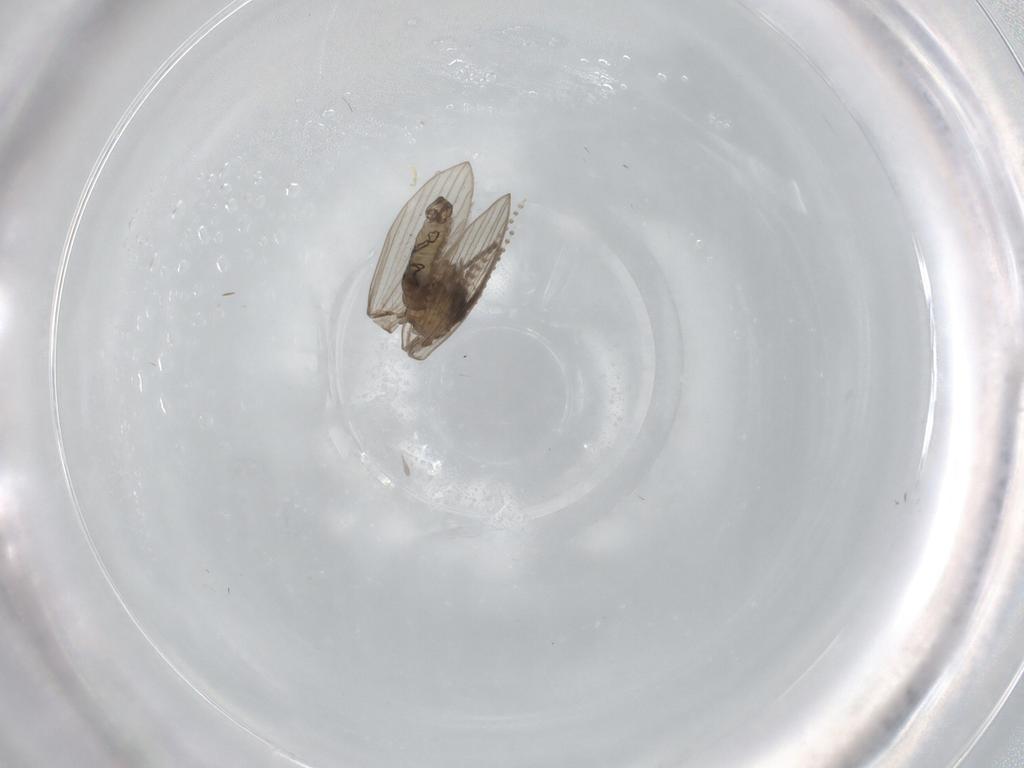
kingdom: Animalia
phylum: Arthropoda
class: Insecta
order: Diptera
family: Psychodidae
